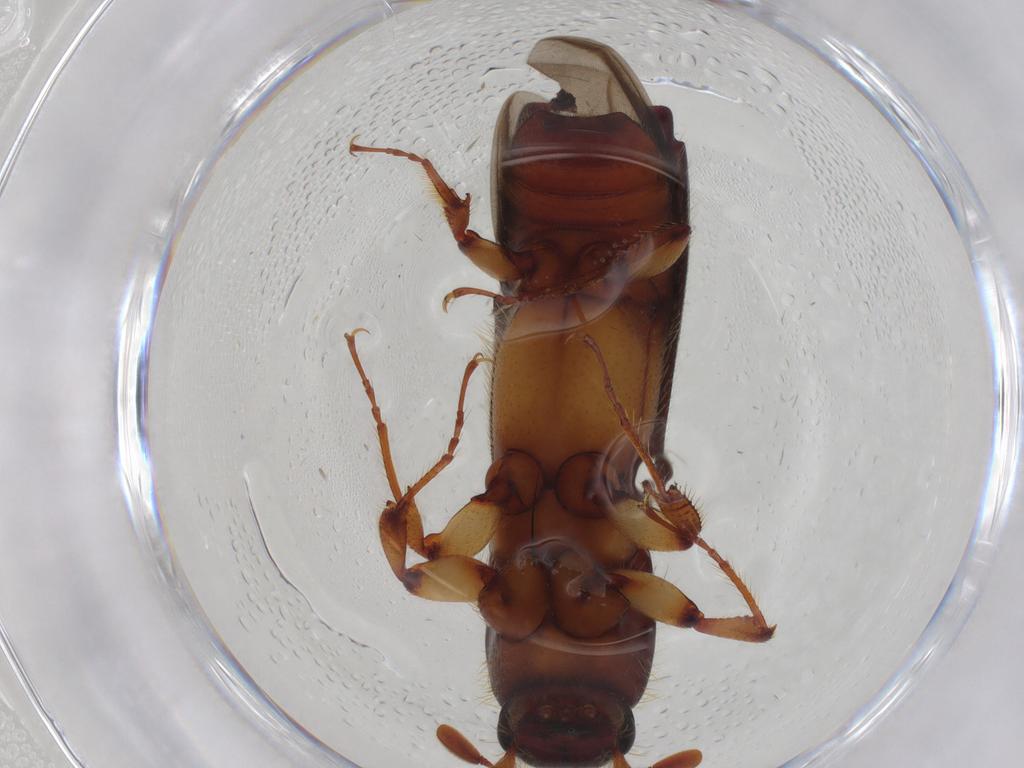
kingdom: Animalia
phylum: Arthropoda
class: Insecta
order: Coleoptera
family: Curculionidae
